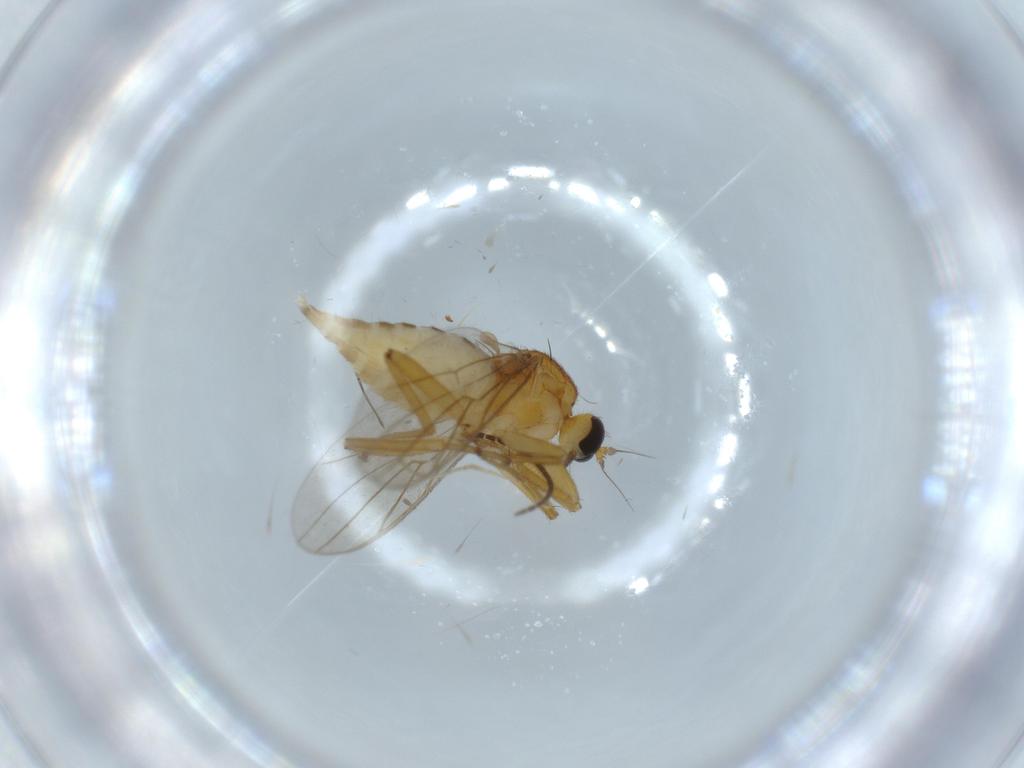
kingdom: Animalia
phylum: Arthropoda
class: Insecta
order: Diptera
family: Hybotidae
